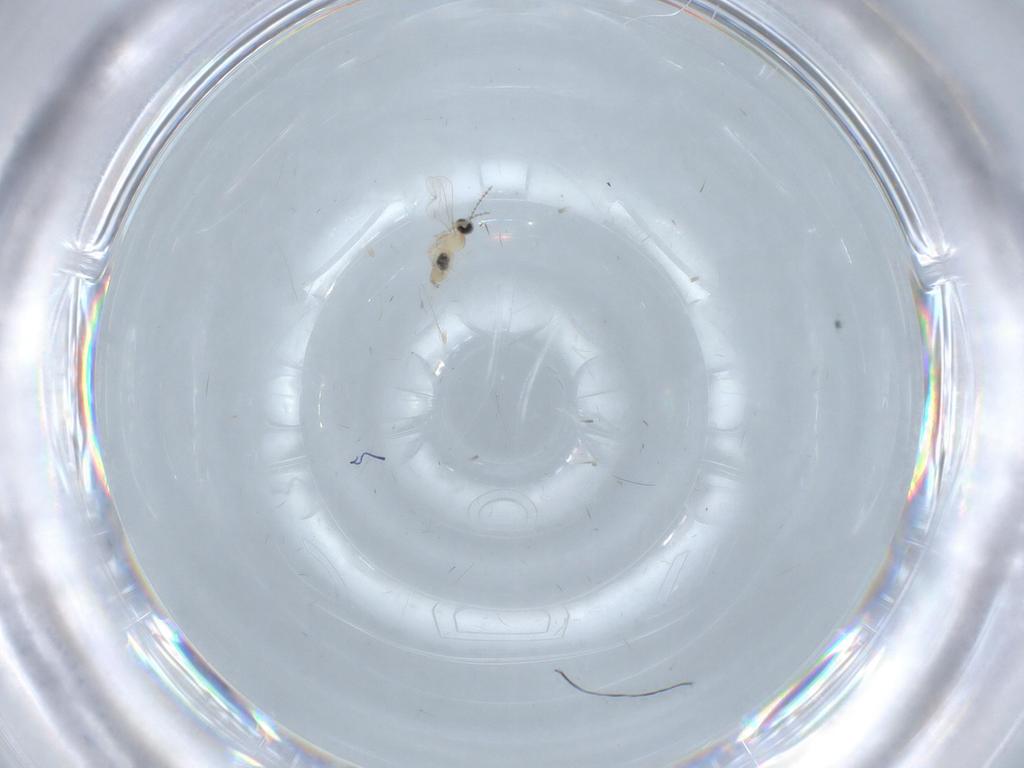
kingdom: Animalia
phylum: Arthropoda
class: Insecta
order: Diptera
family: Cecidomyiidae
